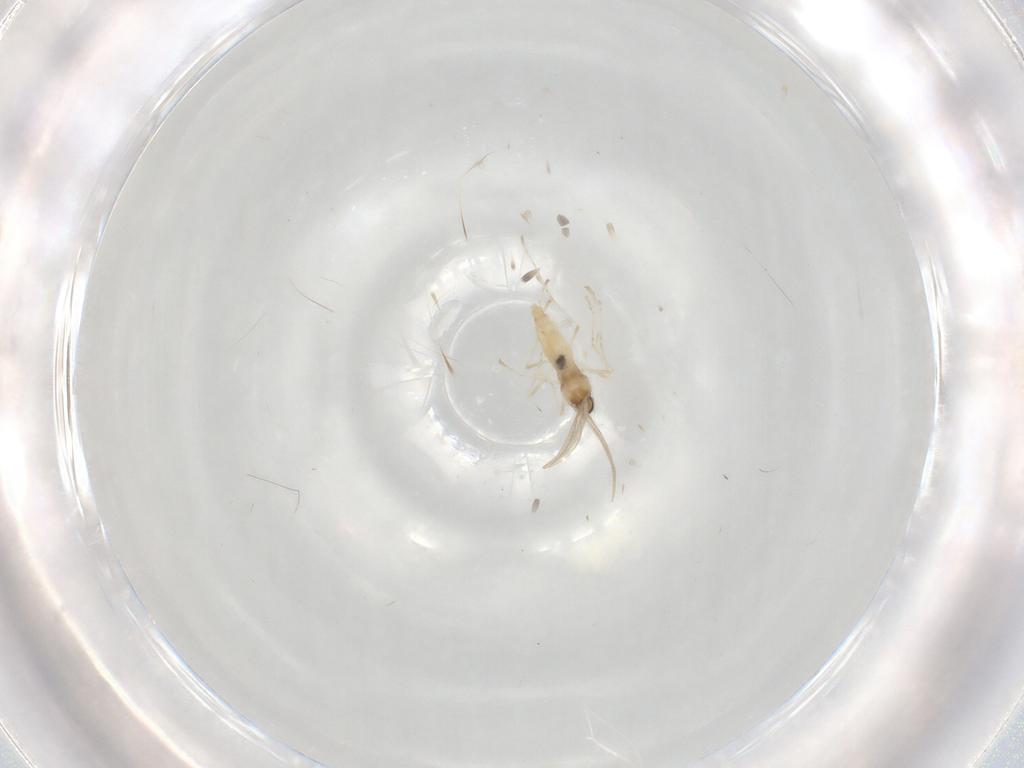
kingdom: Animalia
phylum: Arthropoda
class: Insecta
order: Diptera
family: Cecidomyiidae
